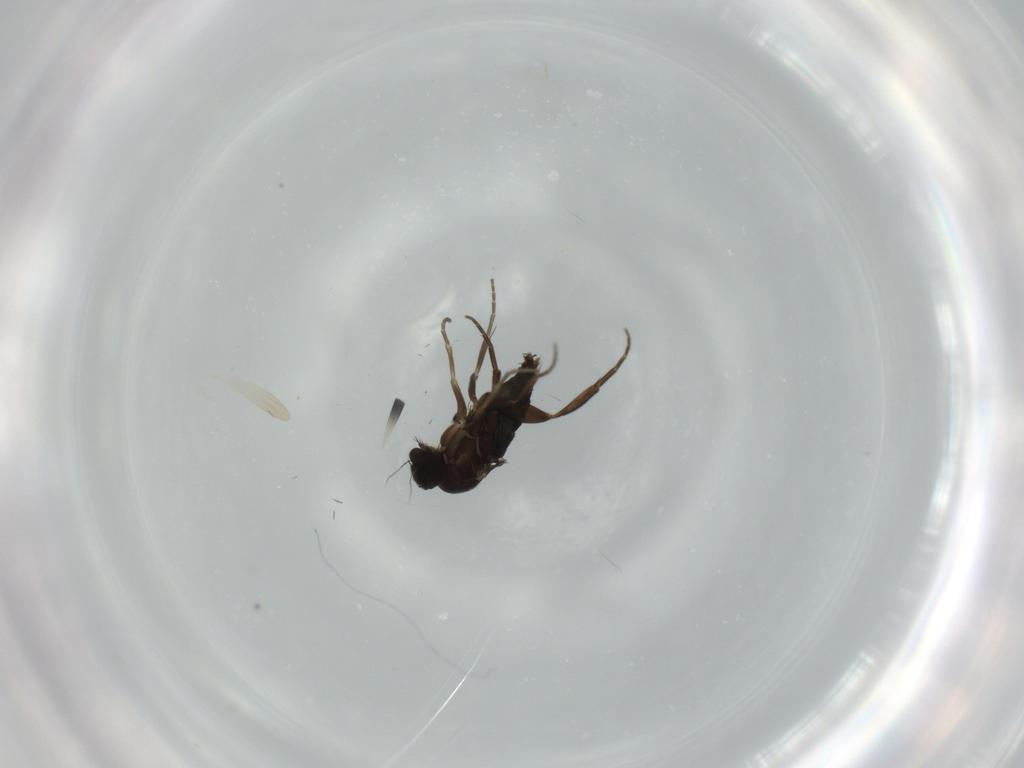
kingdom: Animalia
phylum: Arthropoda
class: Insecta
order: Diptera
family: Phoridae
